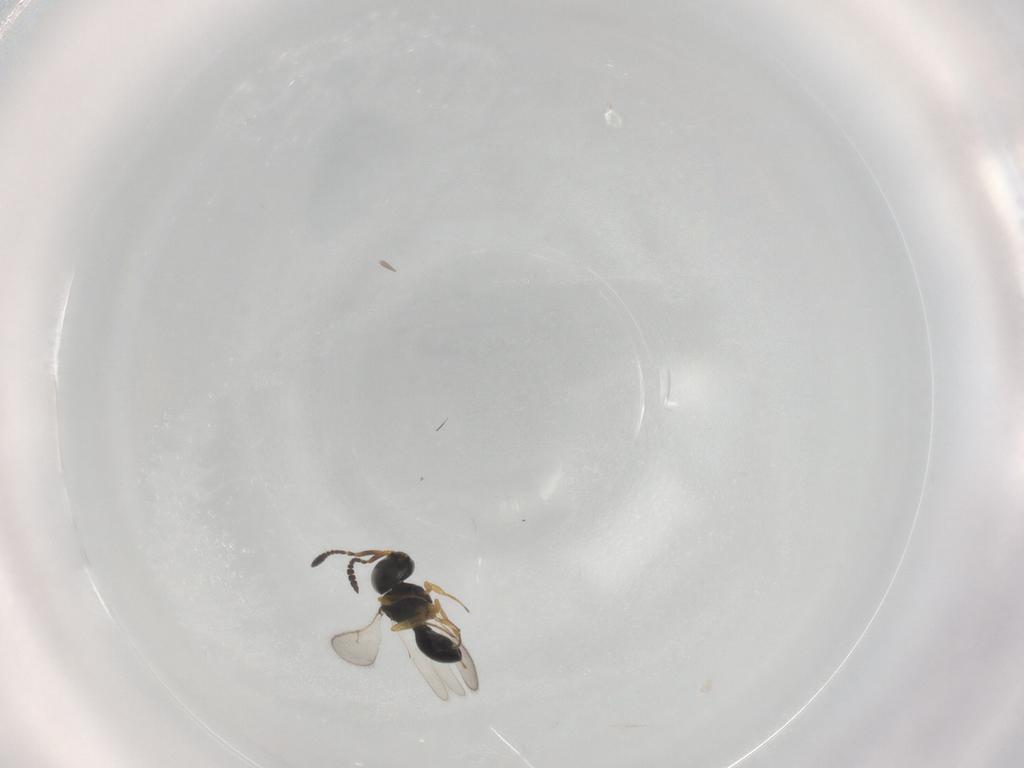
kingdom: Animalia
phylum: Arthropoda
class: Insecta
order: Hymenoptera
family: Scelionidae
